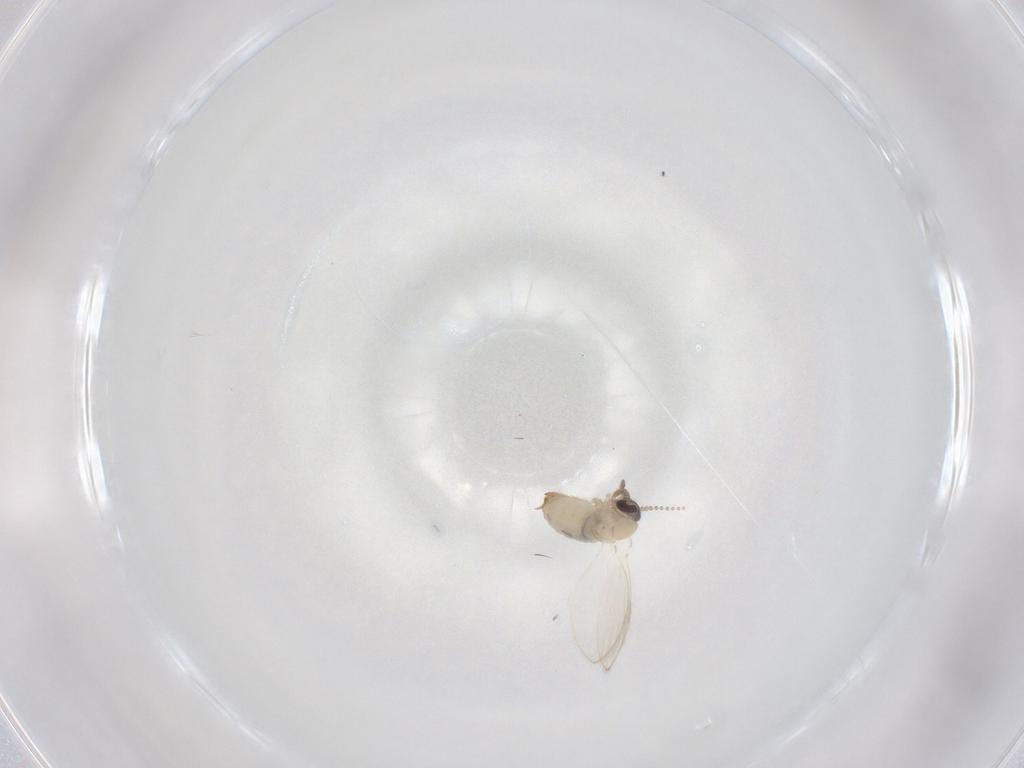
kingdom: Animalia
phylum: Arthropoda
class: Insecta
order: Diptera
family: Psychodidae
